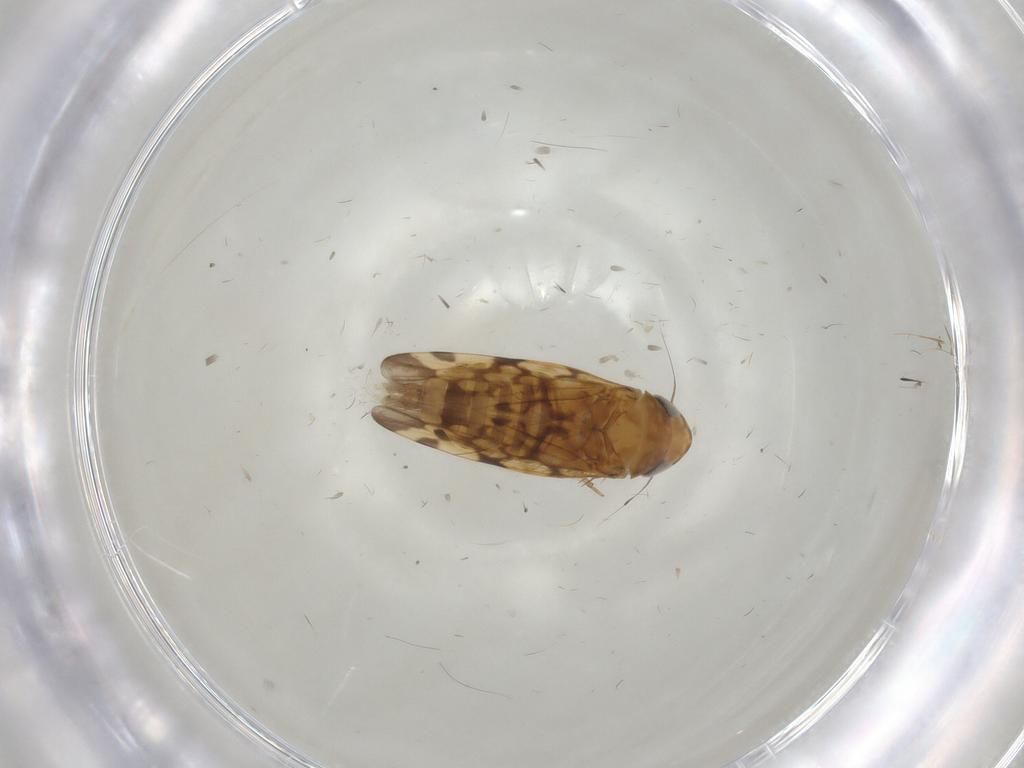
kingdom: Animalia
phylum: Arthropoda
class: Insecta
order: Hemiptera
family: Cicadellidae
